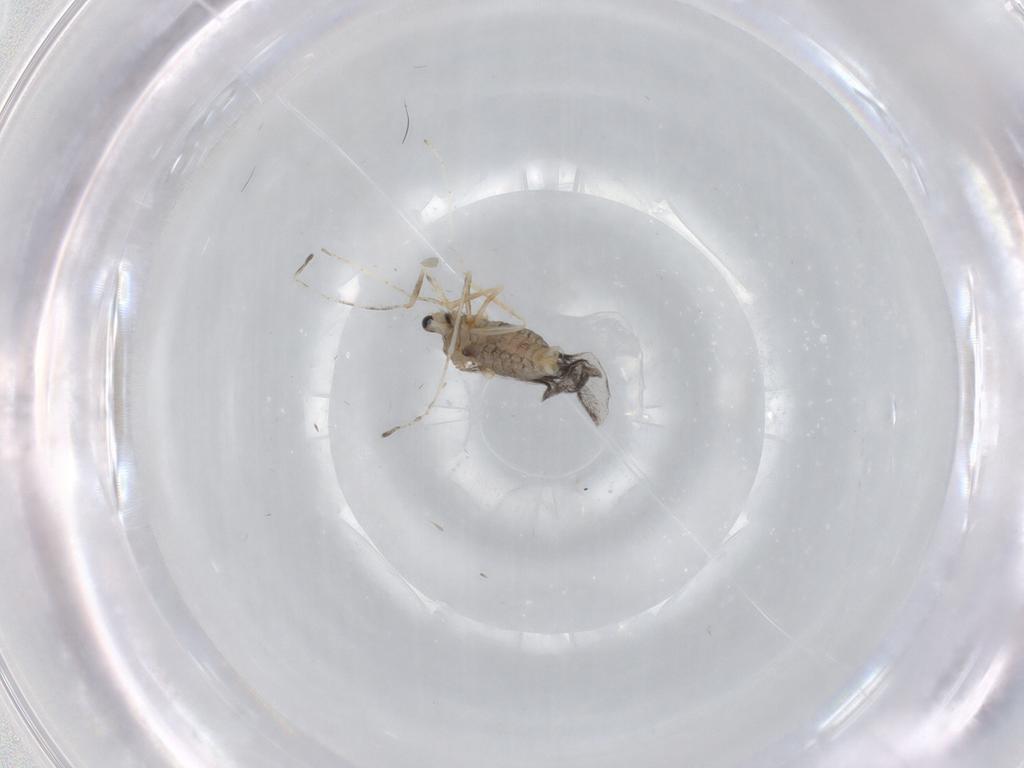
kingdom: Animalia
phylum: Arthropoda
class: Insecta
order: Diptera
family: Cecidomyiidae
